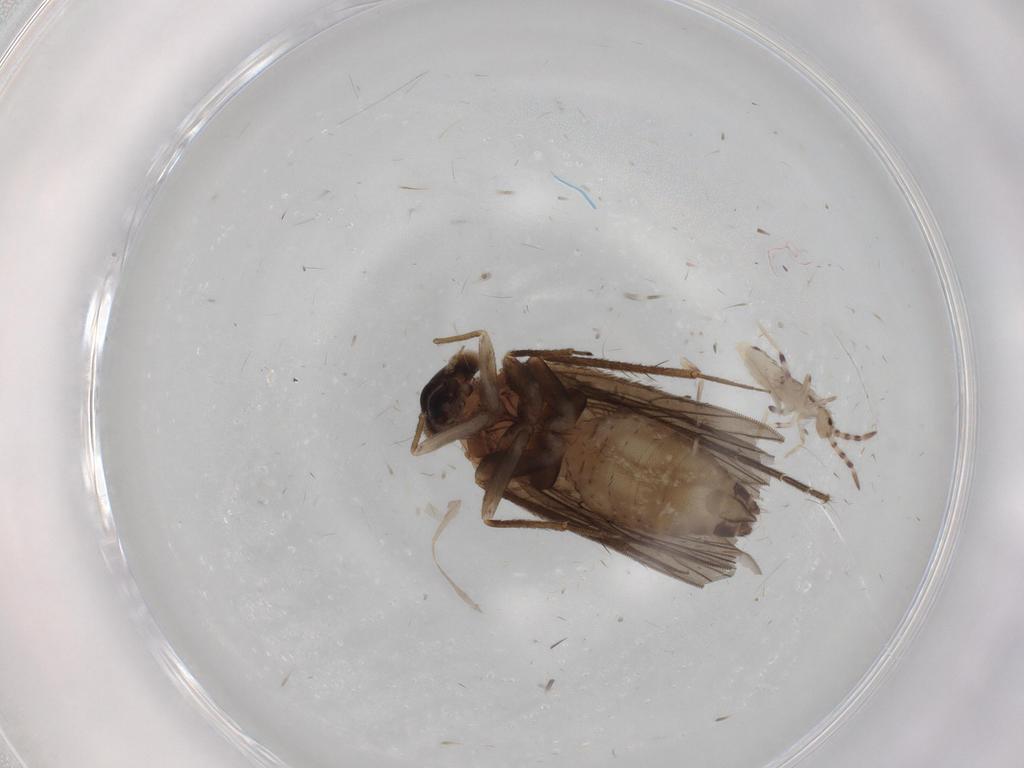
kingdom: Animalia
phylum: Arthropoda
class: Insecta
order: Psocodea
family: Lepidopsocidae
